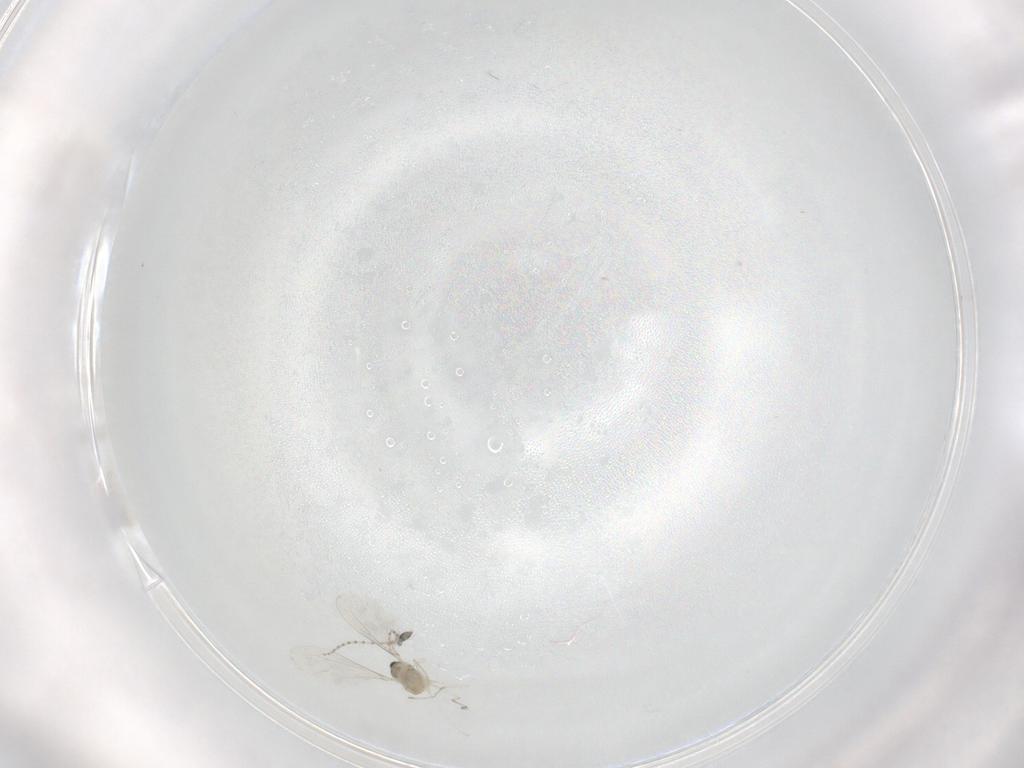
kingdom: Animalia
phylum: Arthropoda
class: Insecta
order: Diptera
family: Cecidomyiidae
